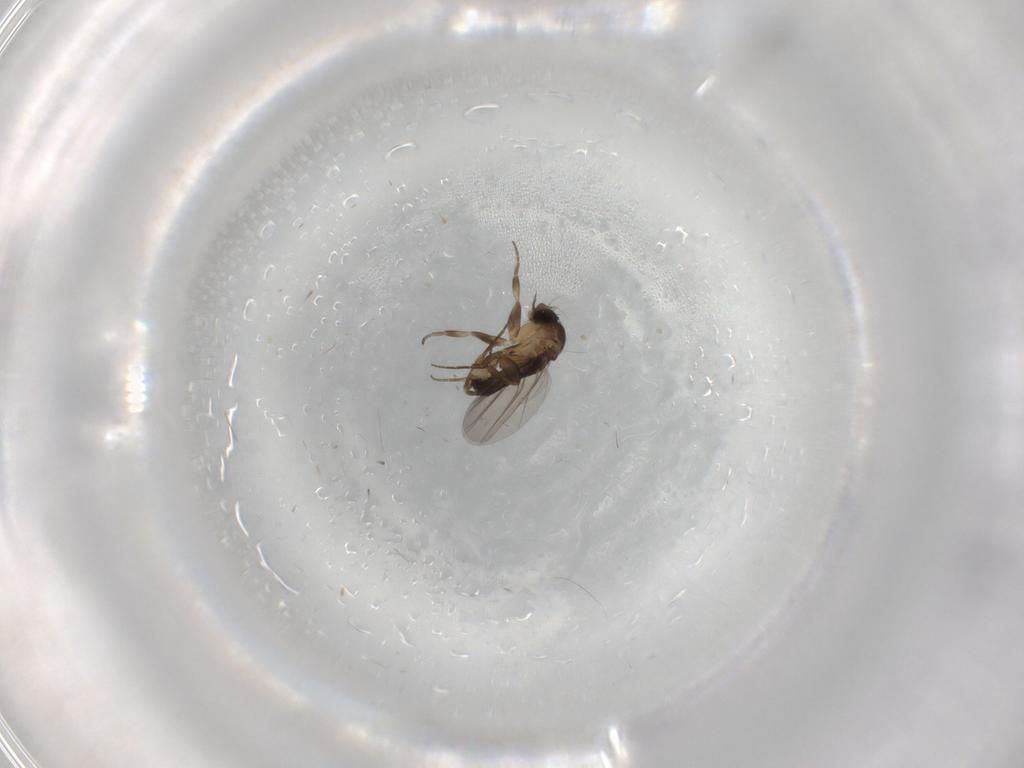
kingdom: Animalia
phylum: Arthropoda
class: Insecta
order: Diptera
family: Phoridae
